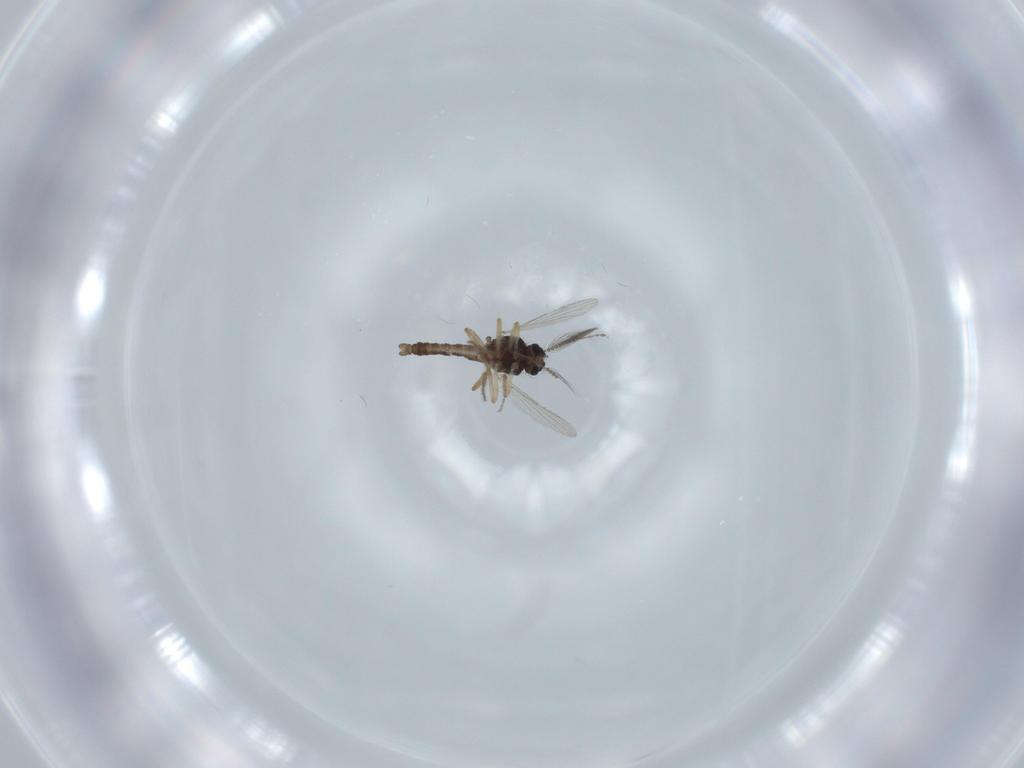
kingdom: Animalia
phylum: Arthropoda
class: Insecta
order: Diptera
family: Ceratopogonidae
